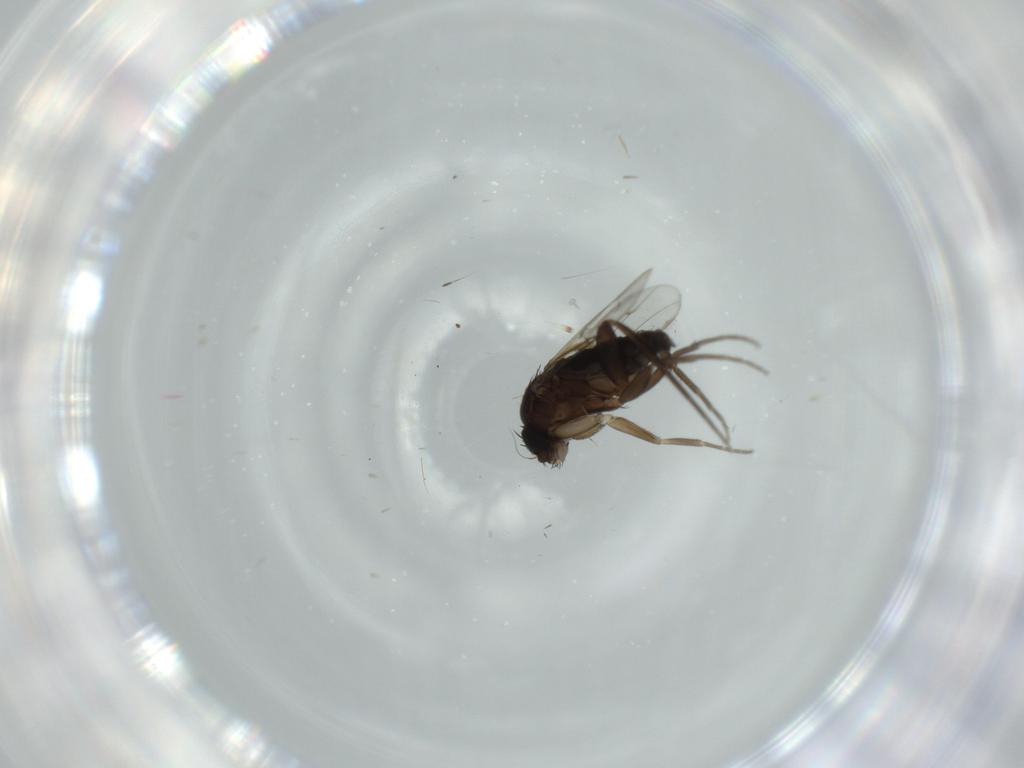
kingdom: Animalia
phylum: Arthropoda
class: Insecta
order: Diptera
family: Phoridae
